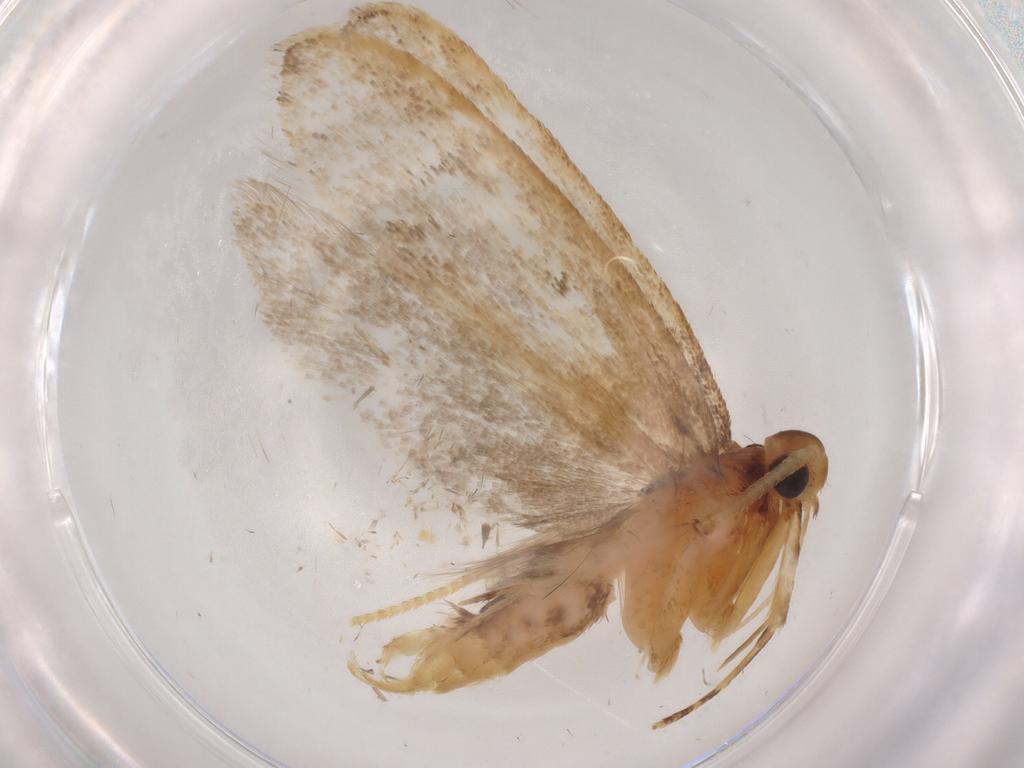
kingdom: Animalia
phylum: Arthropoda
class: Insecta
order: Lepidoptera
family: Lecithoceridae
